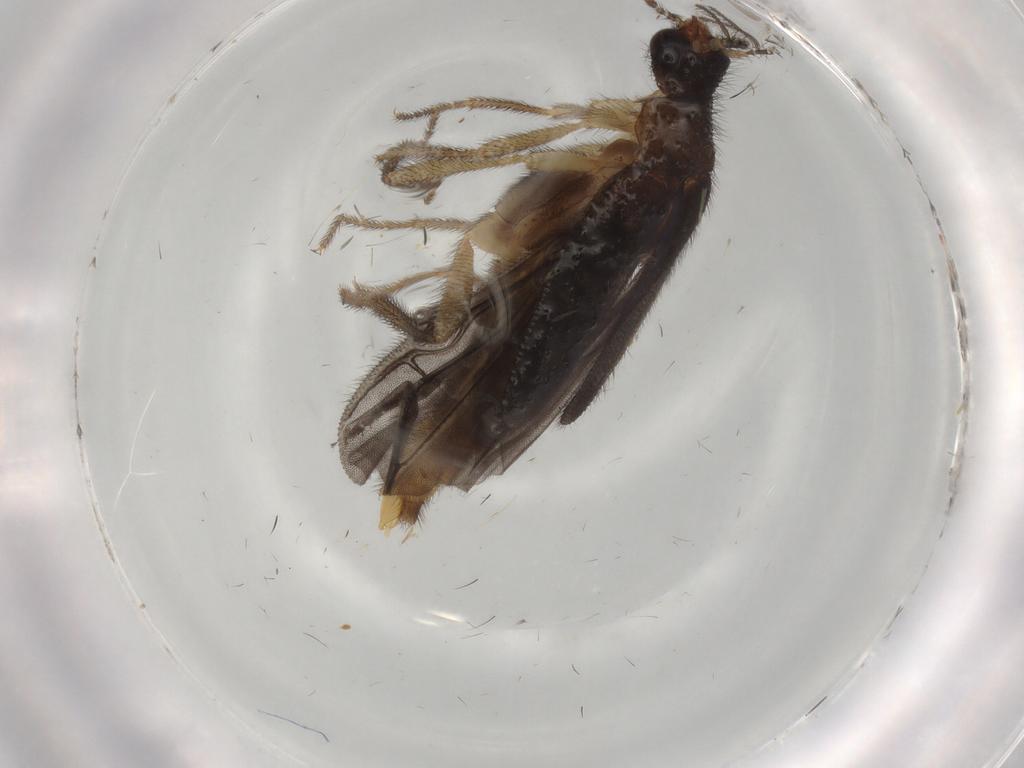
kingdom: Animalia
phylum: Arthropoda
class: Insecta
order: Coleoptera
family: Chrysomelidae
